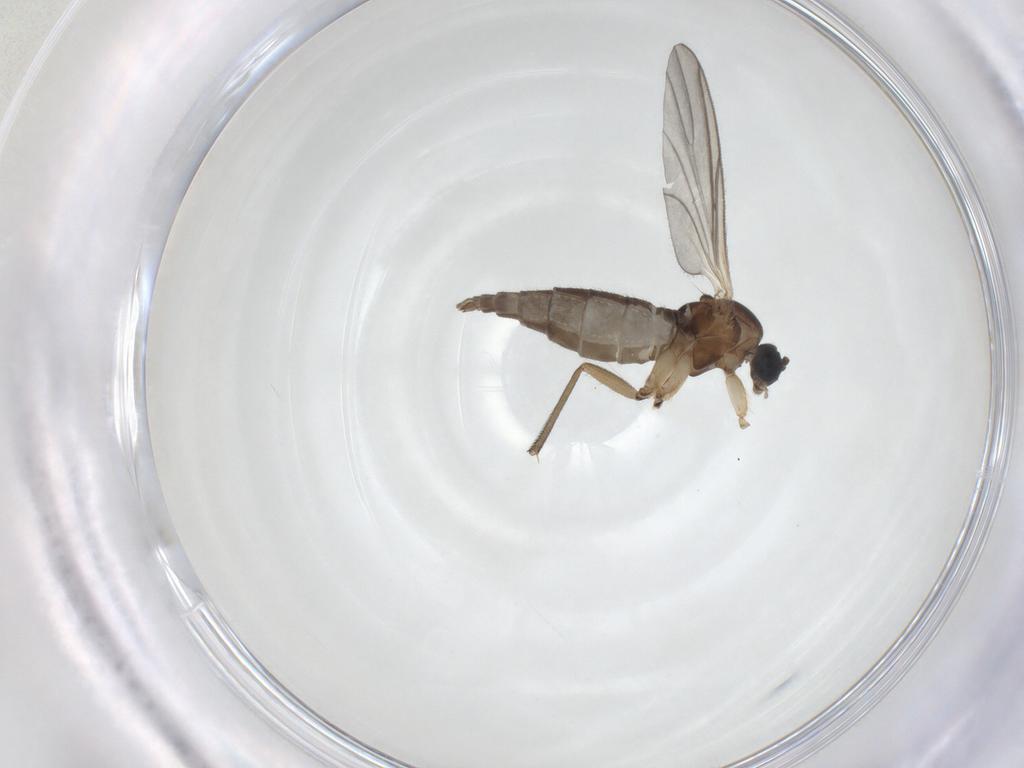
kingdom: Animalia
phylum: Arthropoda
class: Insecta
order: Diptera
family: Sciaridae
